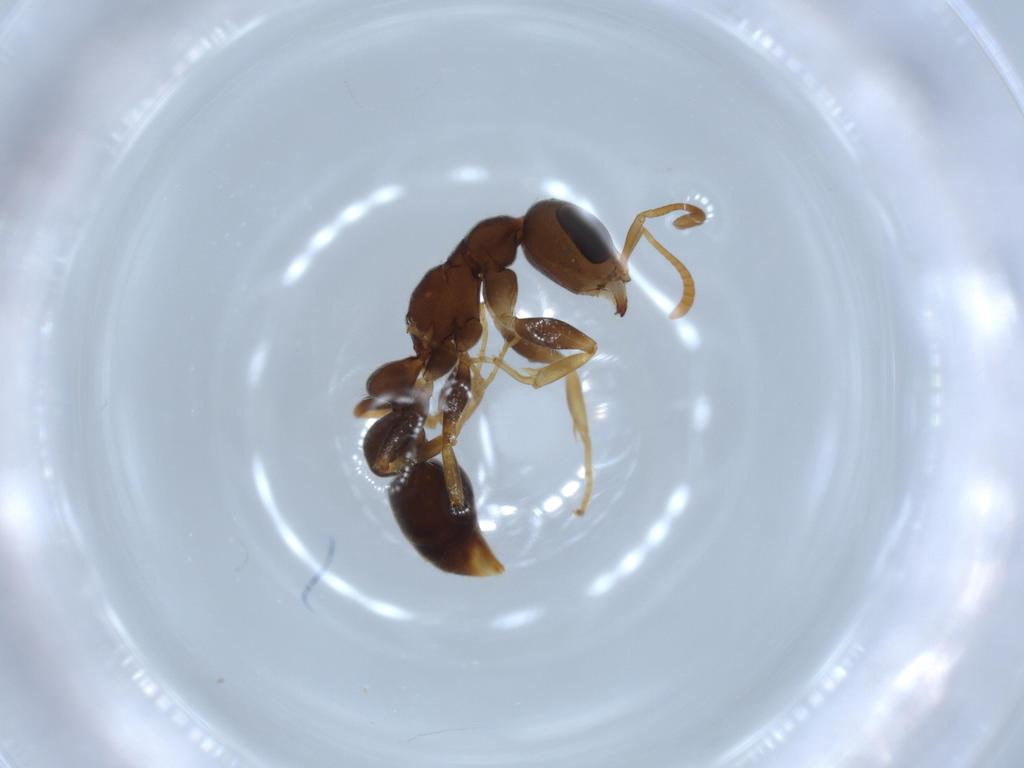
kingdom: Animalia
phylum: Arthropoda
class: Insecta
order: Hymenoptera
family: Formicidae
